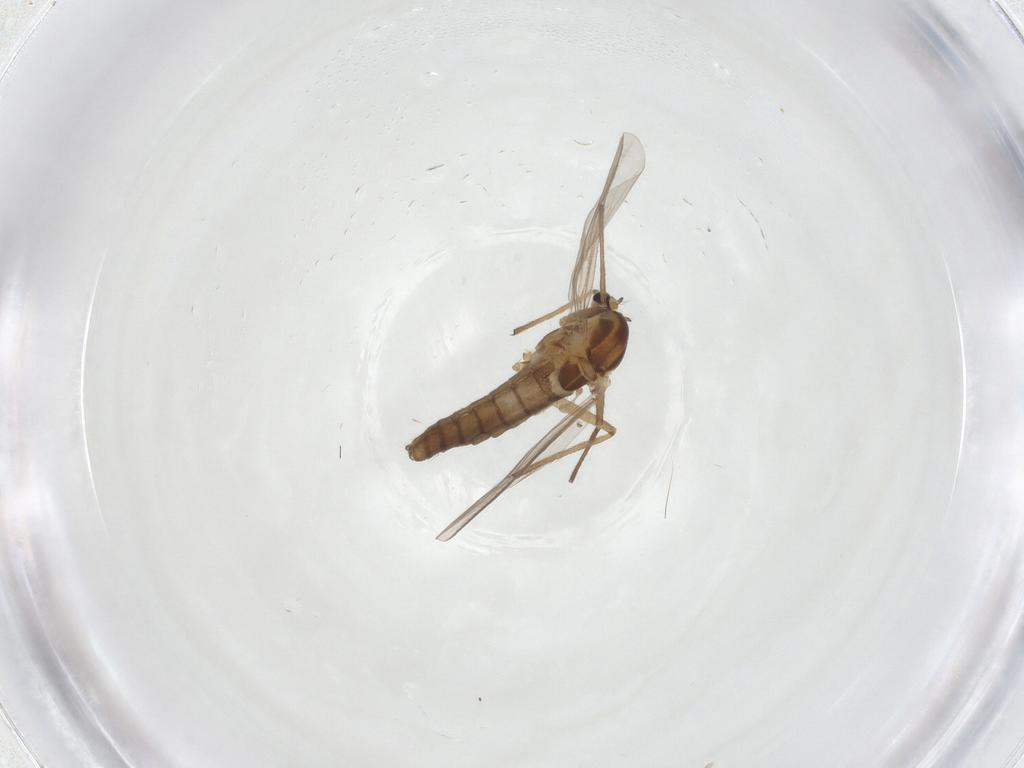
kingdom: Animalia
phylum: Arthropoda
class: Insecta
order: Diptera
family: Chironomidae
